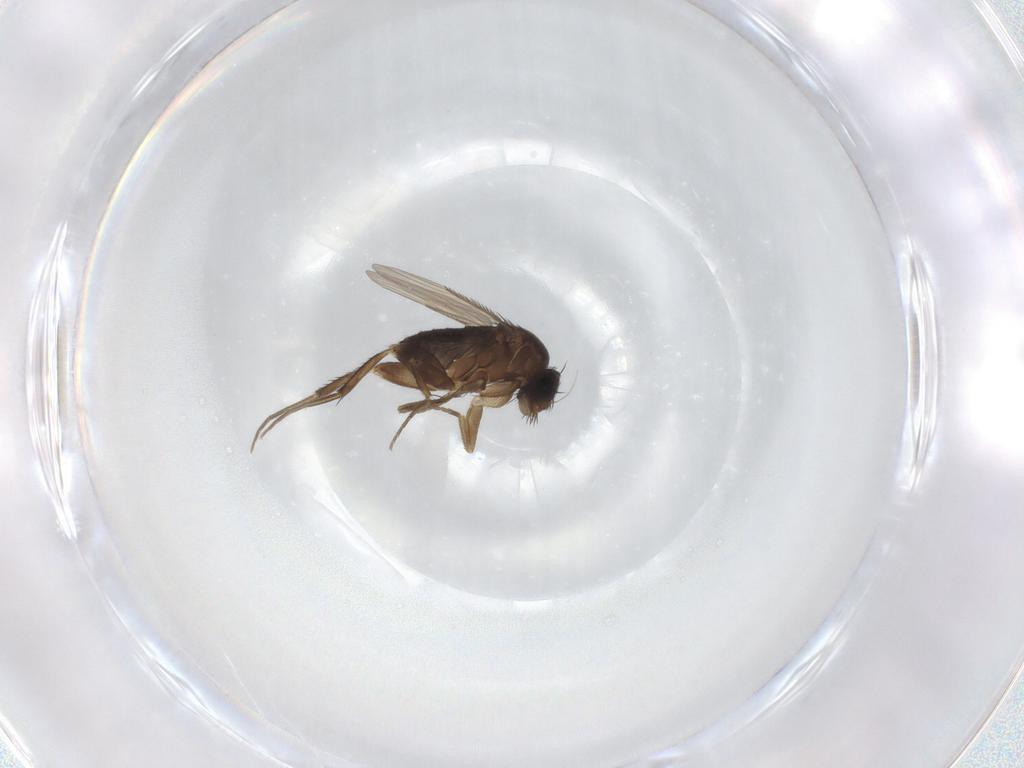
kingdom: Animalia
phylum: Arthropoda
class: Insecta
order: Diptera
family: Phoridae
